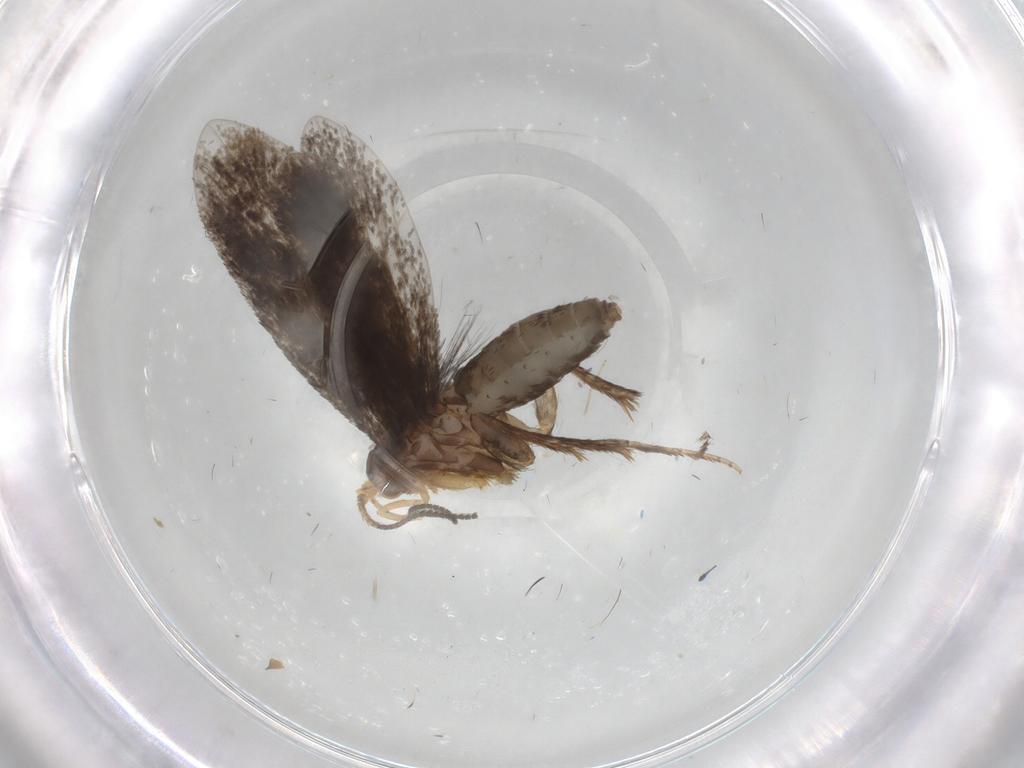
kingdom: Animalia
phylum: Arthropoda
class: Insecta
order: Lepidoptera
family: Micropterigidae
